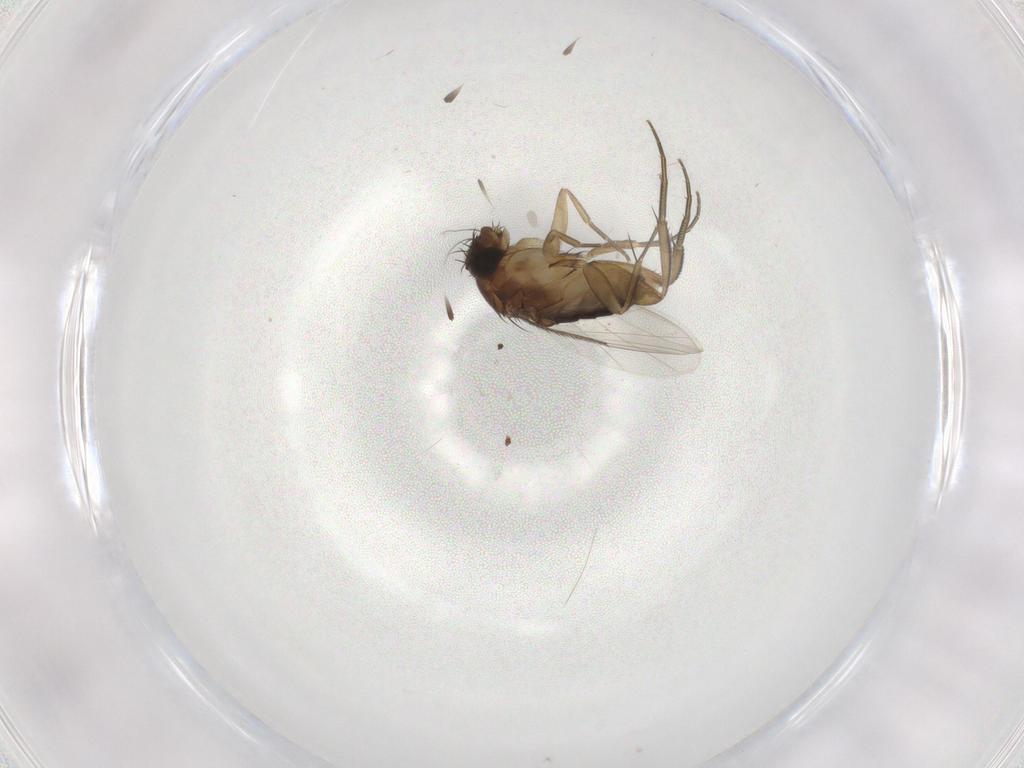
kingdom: Animalia
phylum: Arthropoda
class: Insecta
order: Diptera
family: Phoridae
